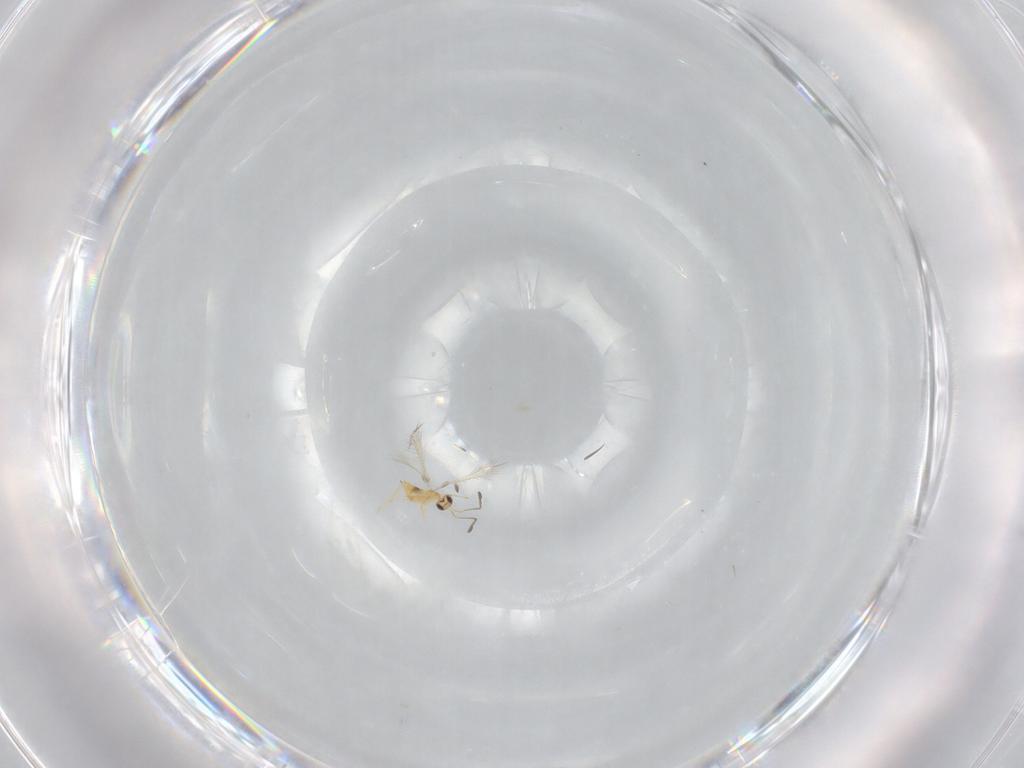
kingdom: Animalia
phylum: Arthropoda
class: Insecta
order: Hymenoptera
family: Mymaridae
